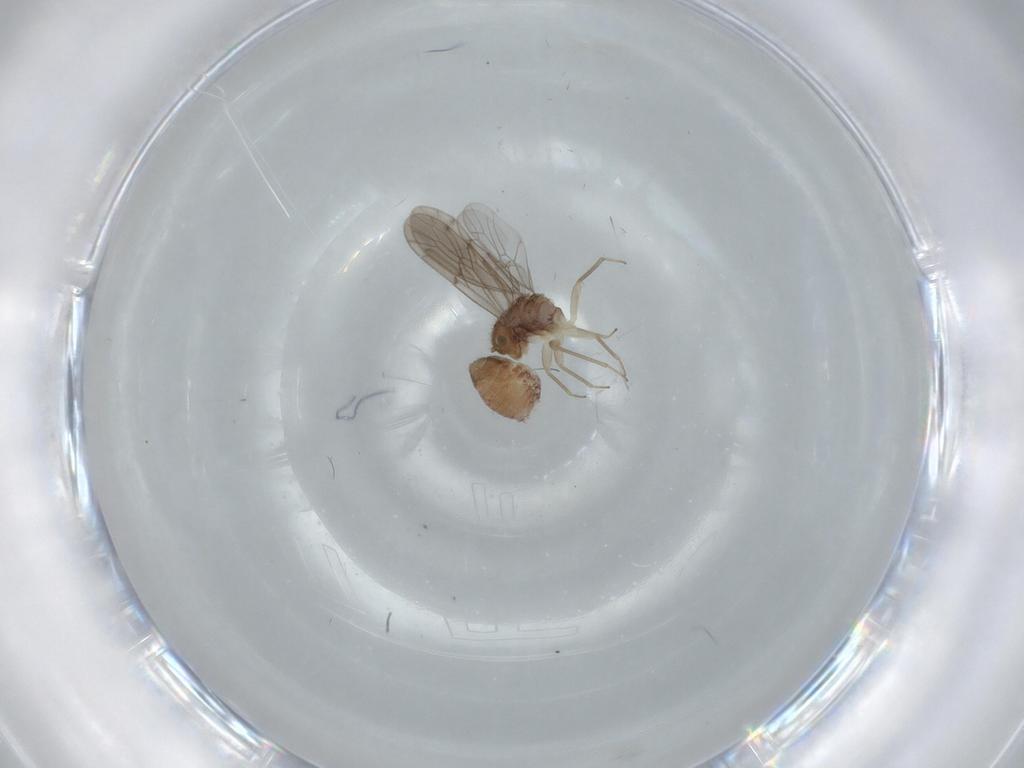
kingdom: Animalia
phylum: Arthropoda
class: Insecta
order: Psocodea
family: Ectopsocidae
